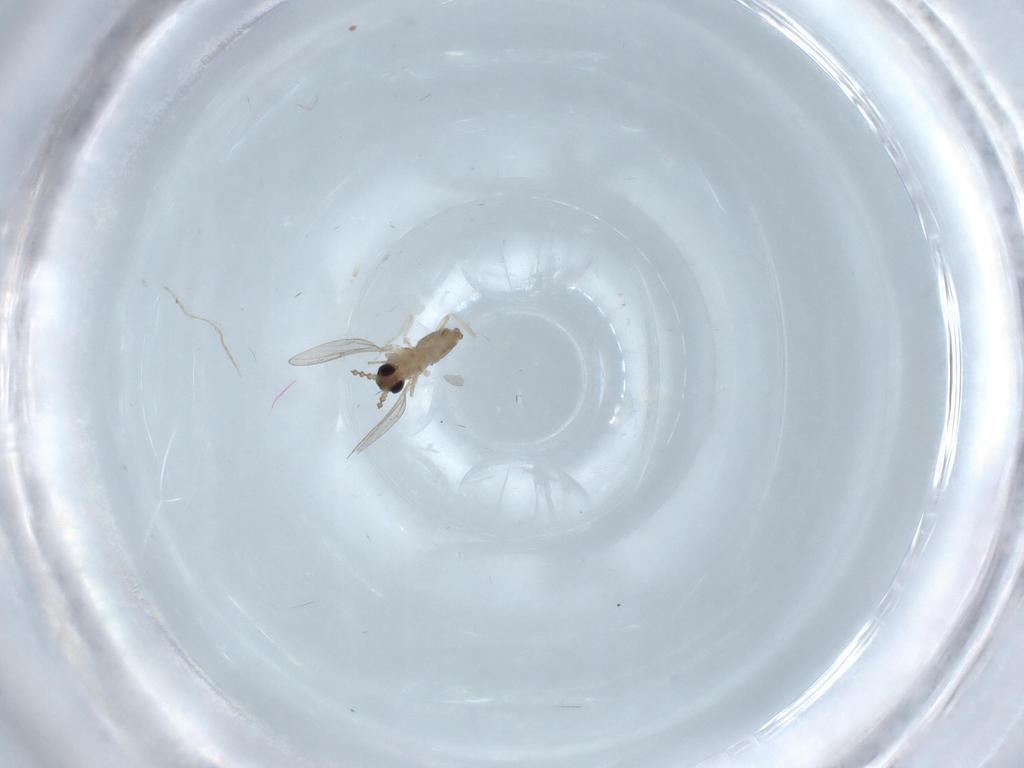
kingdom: Animalia
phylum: Arthropoda
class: Insecta
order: Diptera
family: Cecidomyiidae
